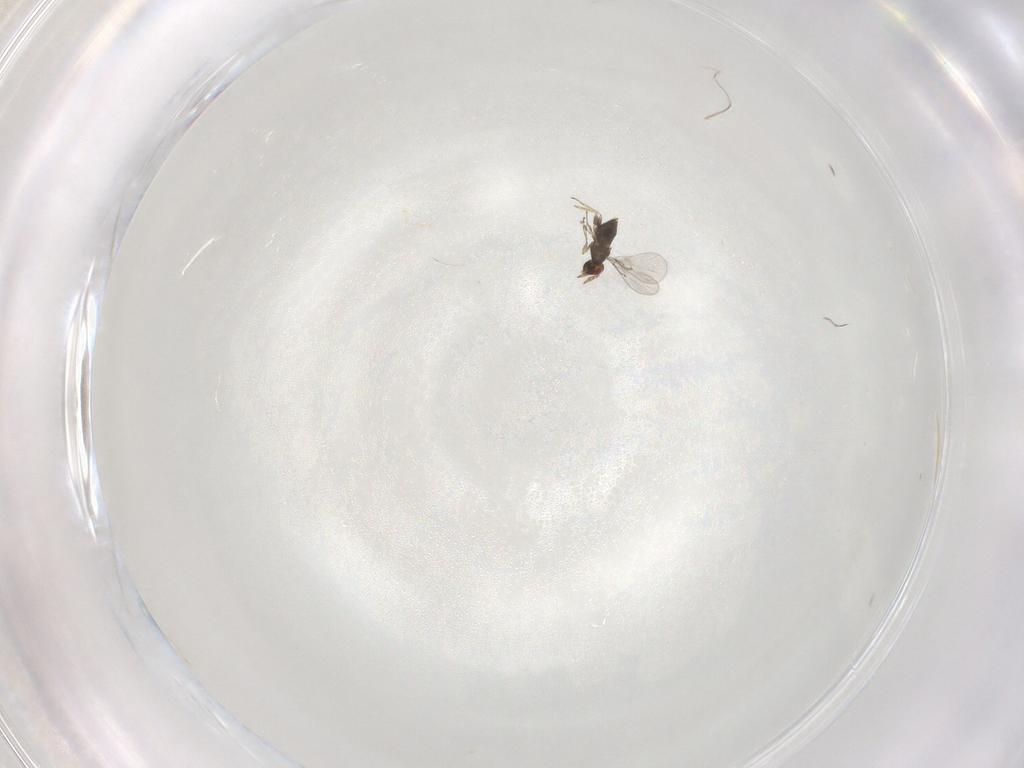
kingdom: Animalia
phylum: Arthropoda
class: Insecta
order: Hymenoptera
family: Trichogrammatidae
